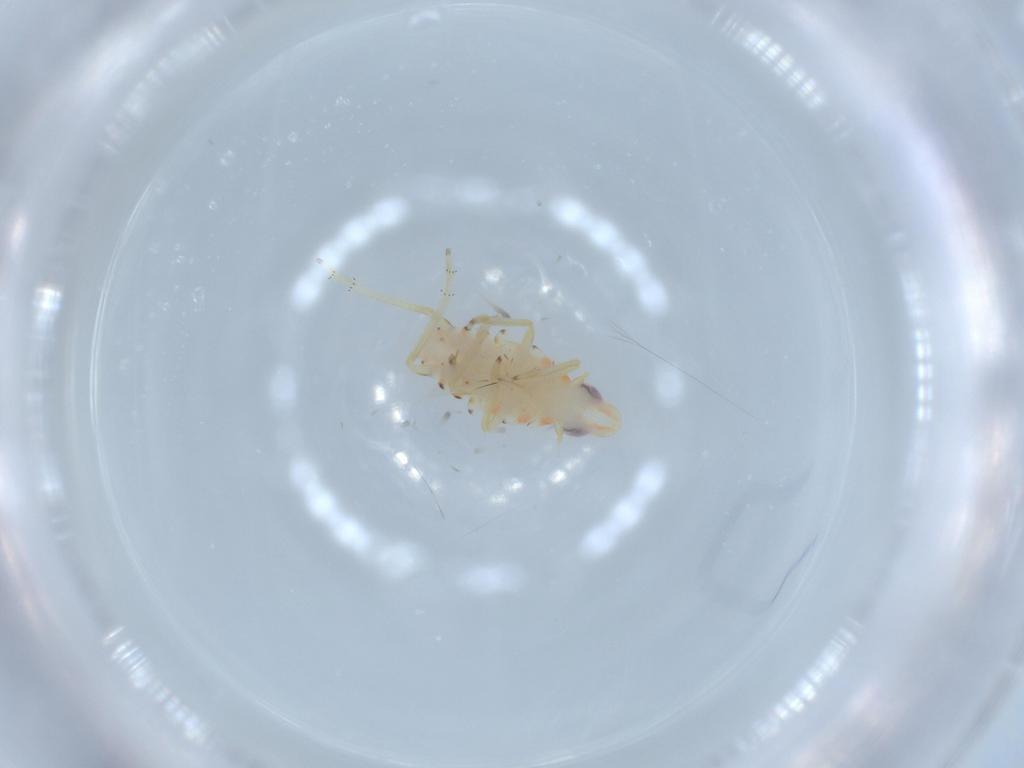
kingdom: Animalia
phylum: Arthropoda
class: Insecta
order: Hemiptera
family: Tropiduchidae
